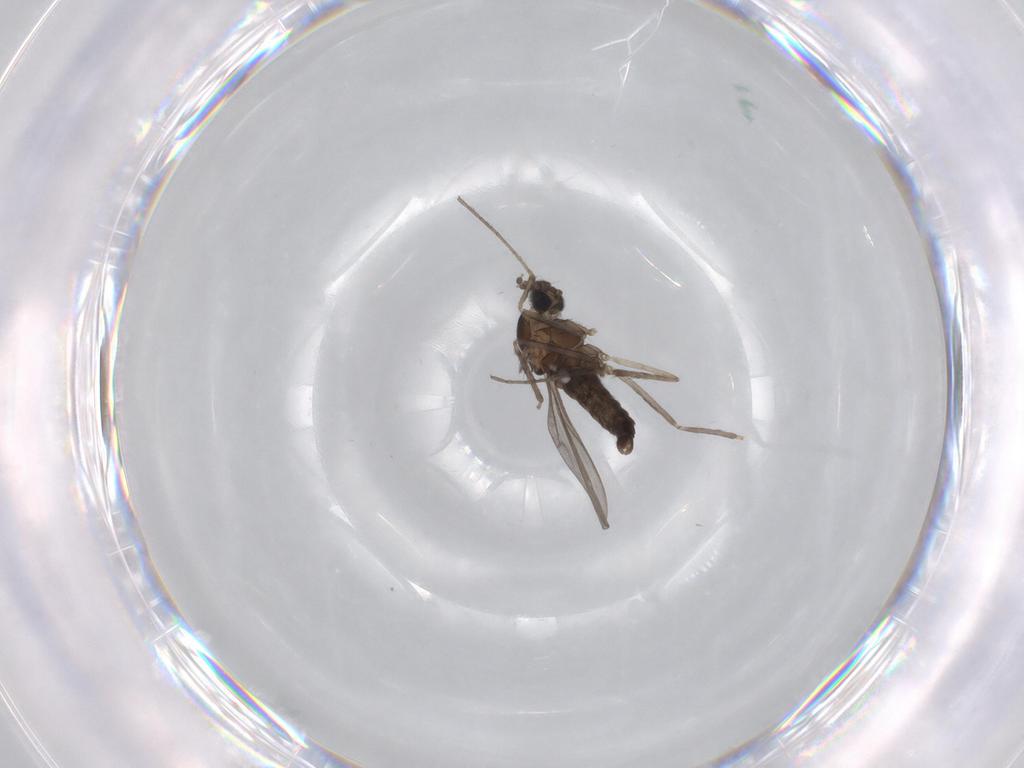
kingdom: Animalia
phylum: Arthropoda
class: Insecta
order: Diptera
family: Cecidomyiidae
